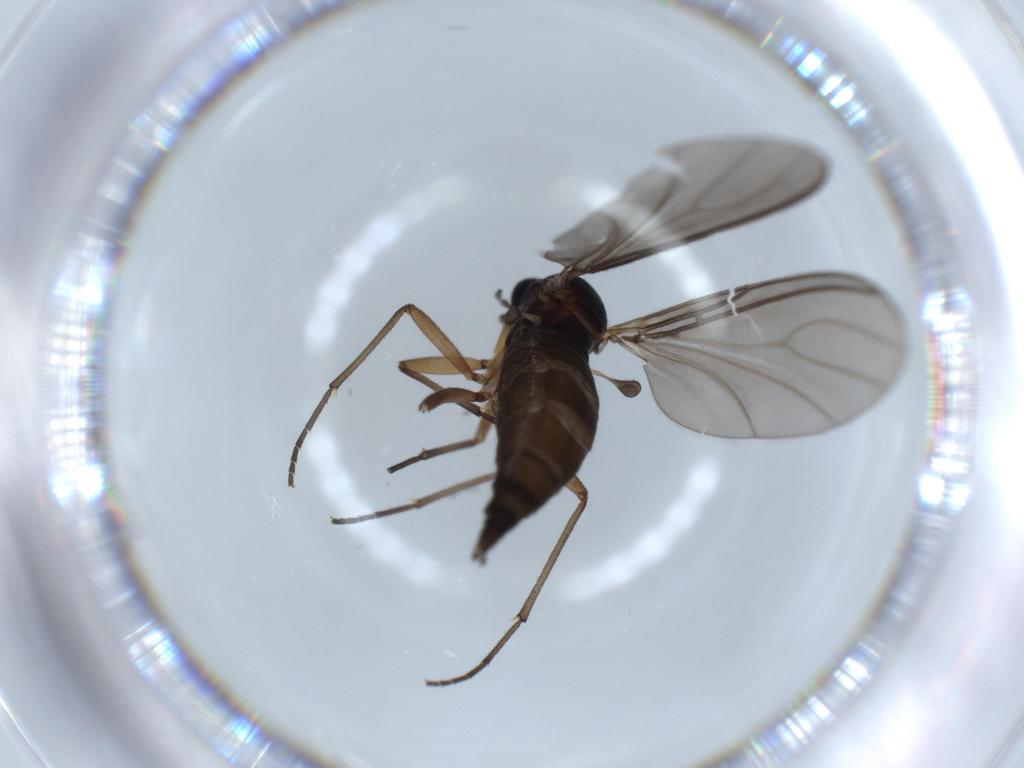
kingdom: Animalia
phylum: Arthropoda
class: Insecta
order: Diptera
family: Sciaridae
